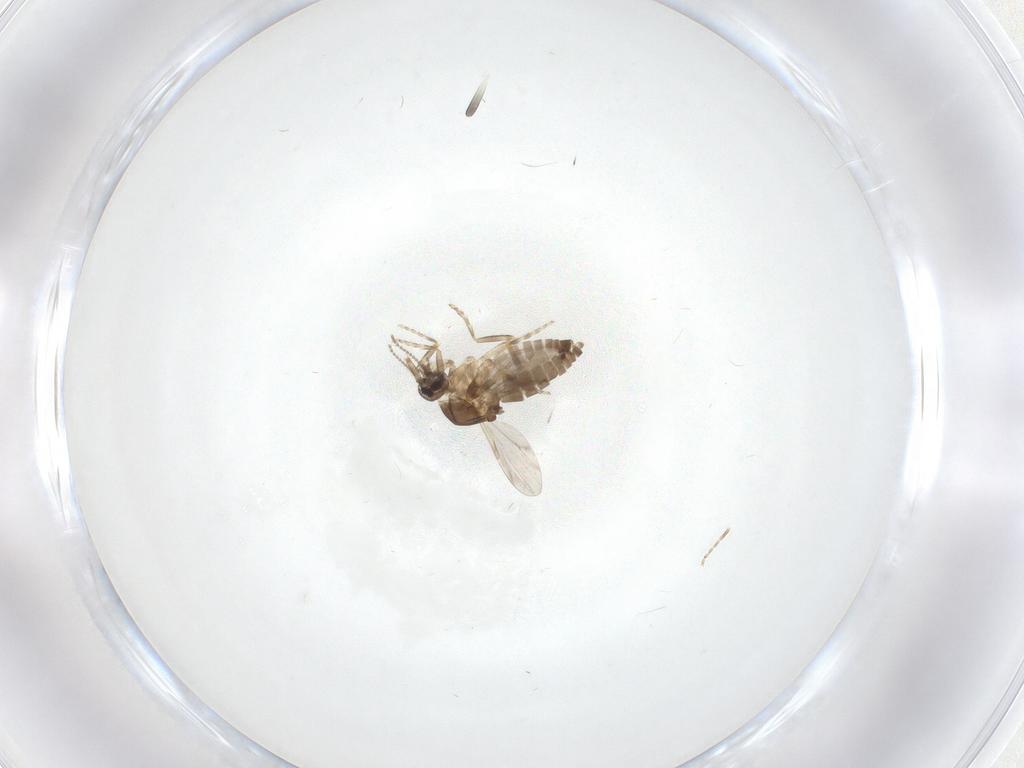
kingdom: Animalia
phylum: Arthropoda
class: Insecta
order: Diptera
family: Ceratopogonidae
